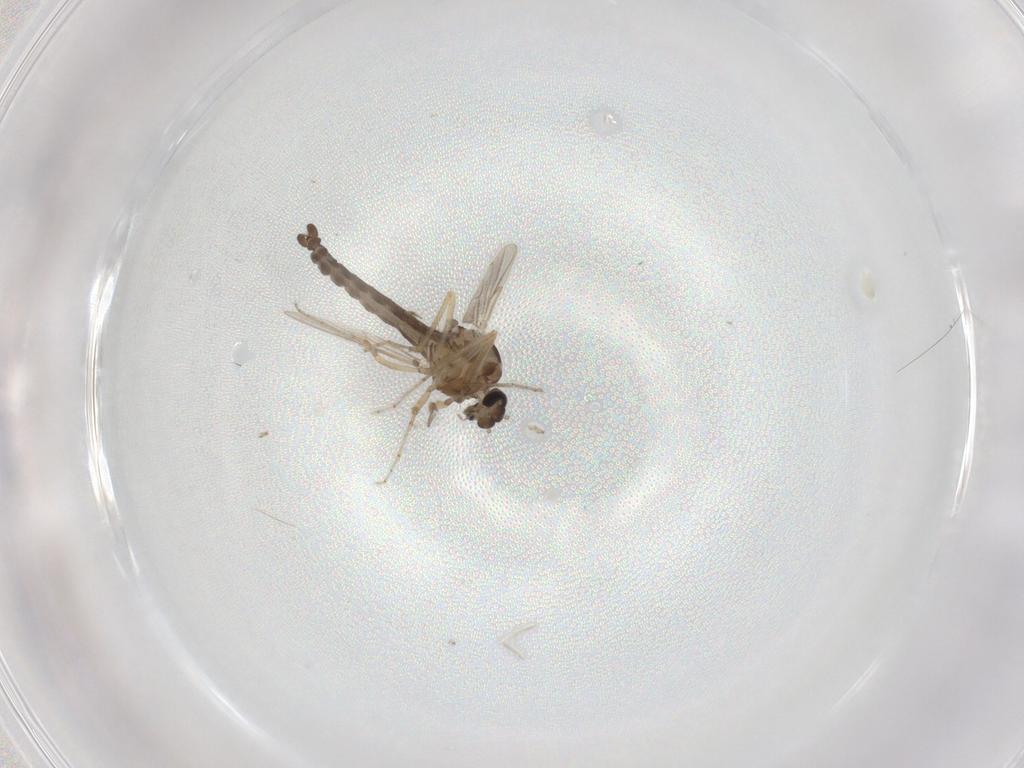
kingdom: Animalia
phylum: Arthropoda
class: Insecta
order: Diptera
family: Ceratopogonidae
